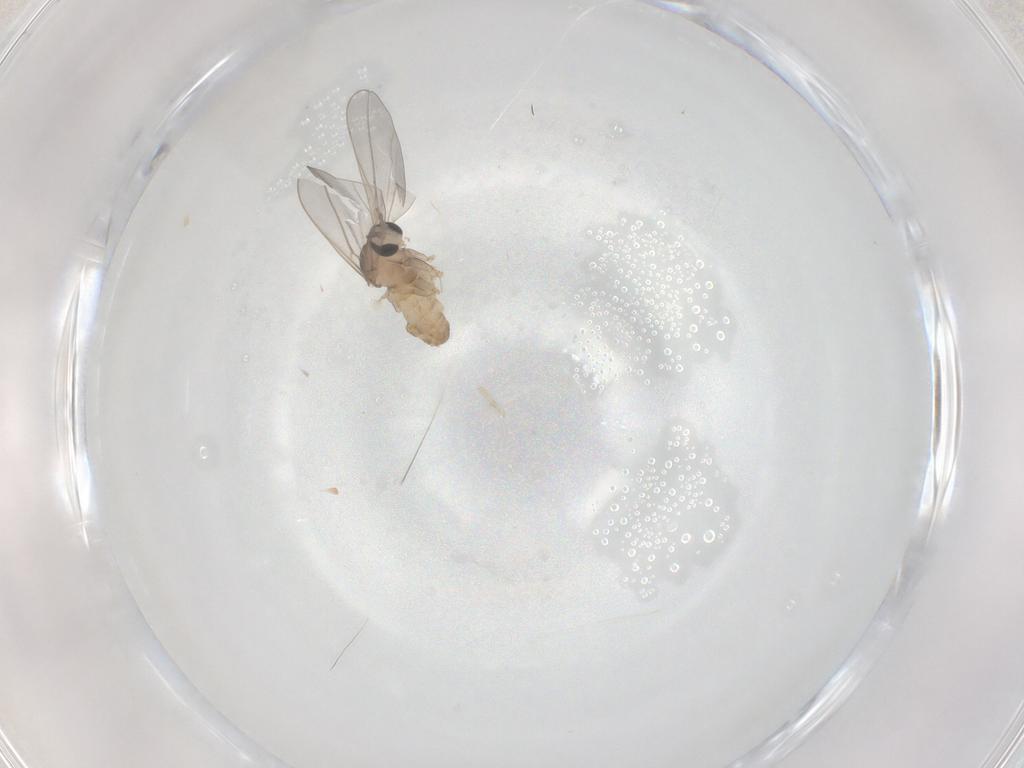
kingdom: Animalia
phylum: Arthropoda
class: Insecta
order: Diptera
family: Cecidomyiidae
